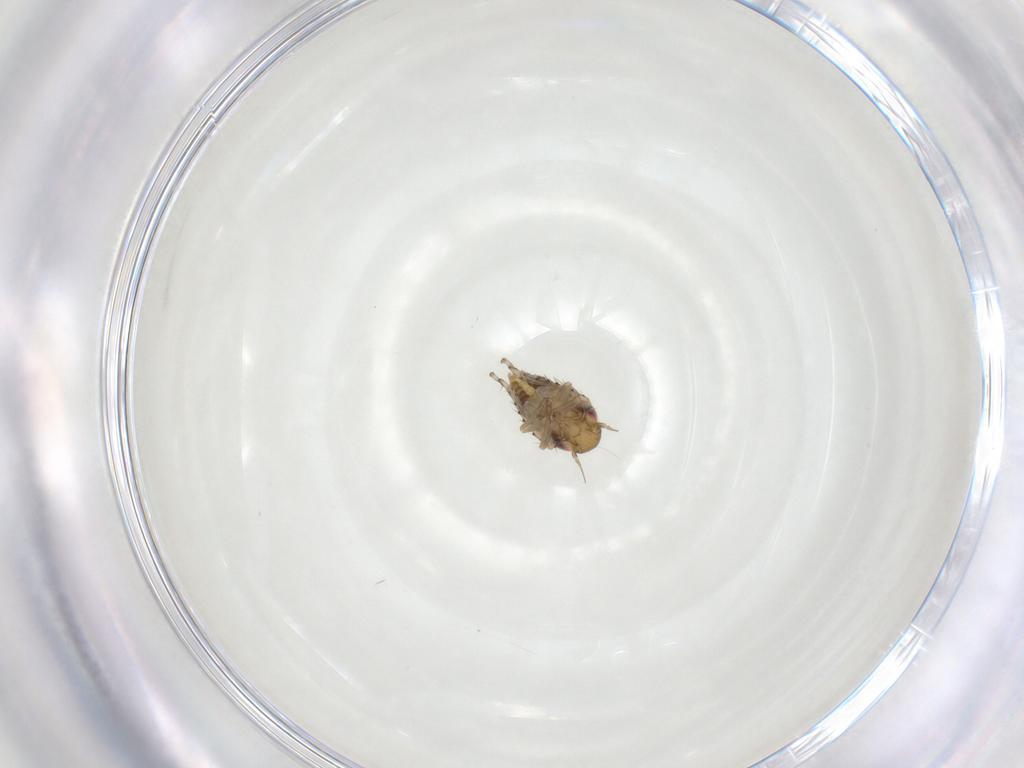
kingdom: Animalia
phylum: Arthropoda
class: Insecta
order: Hemiptera
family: Cicadellidae
